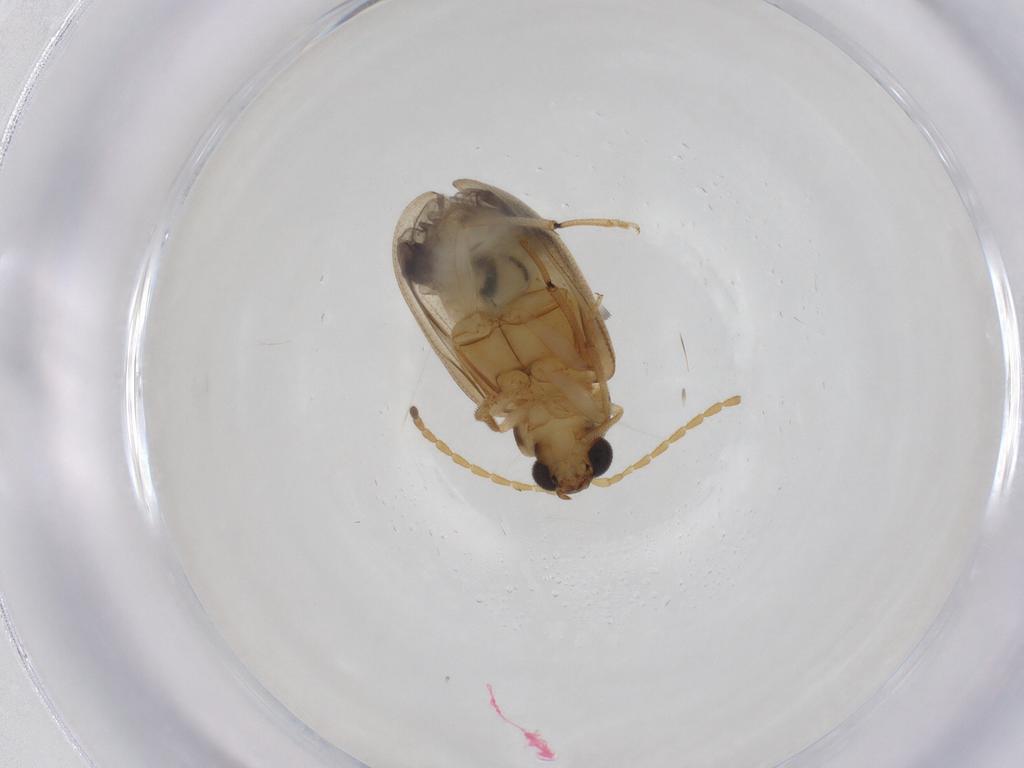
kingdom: Animalia
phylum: Arthropoda
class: Insecta
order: Coleoptera
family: Chrysomelidae
